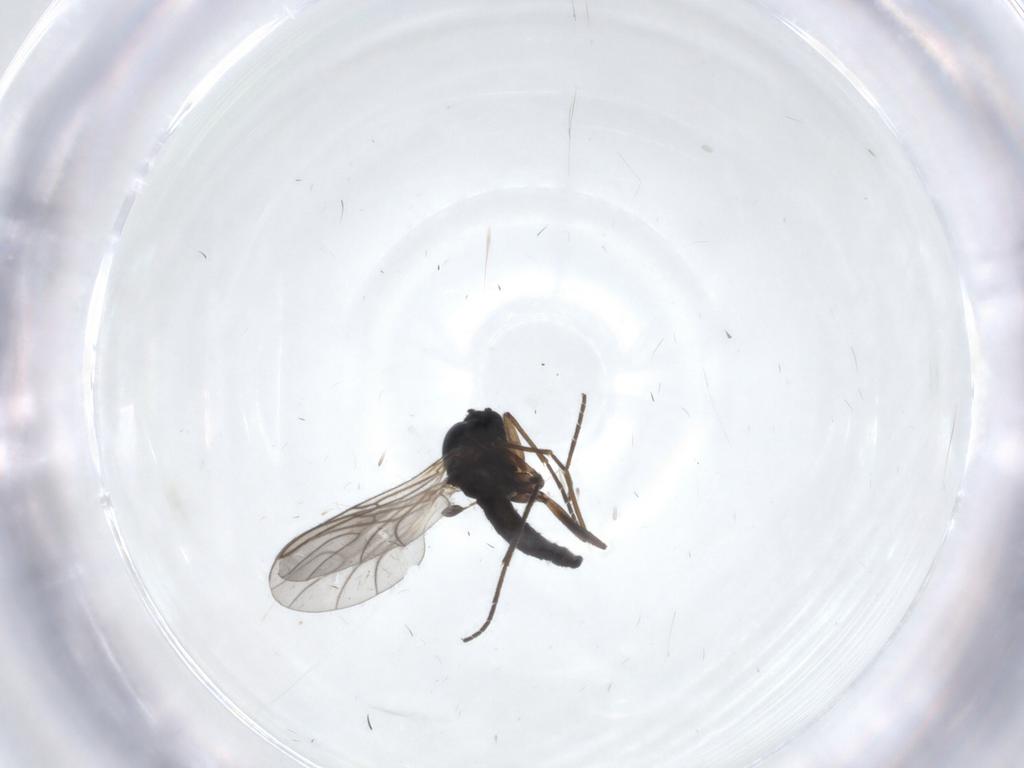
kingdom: Animalia
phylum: Arthropoda
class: Insecta
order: Diptera
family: Sciaridae
